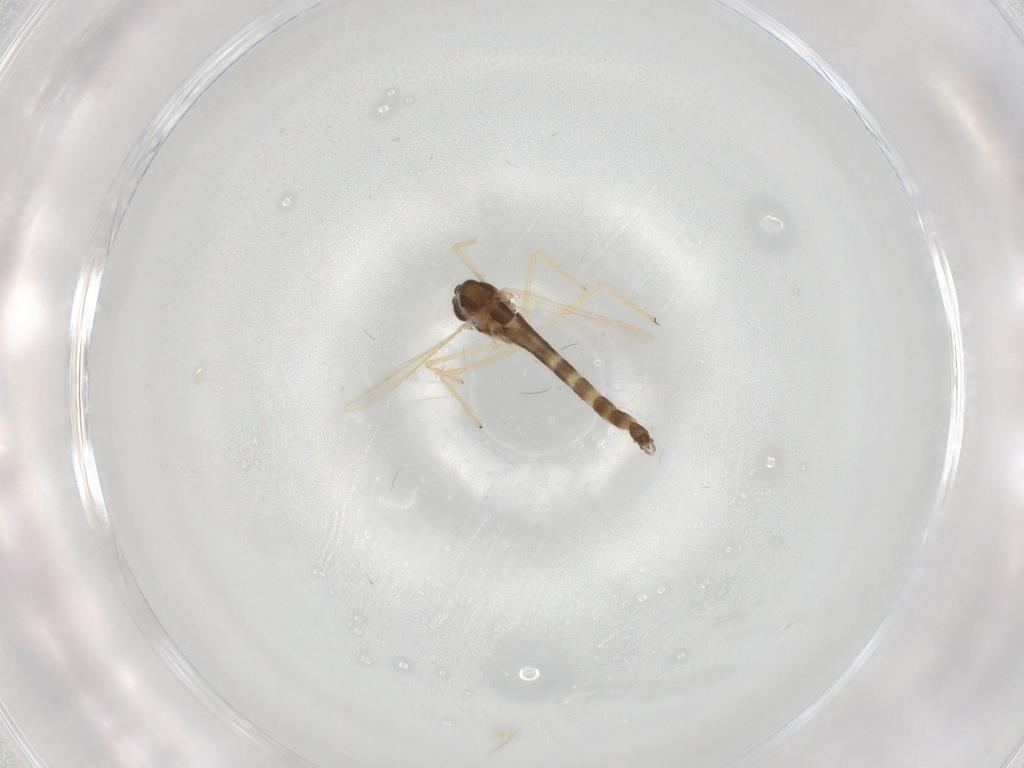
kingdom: Animalia
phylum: Arthropoda
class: Insecta
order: Diptera
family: Chironomidae
